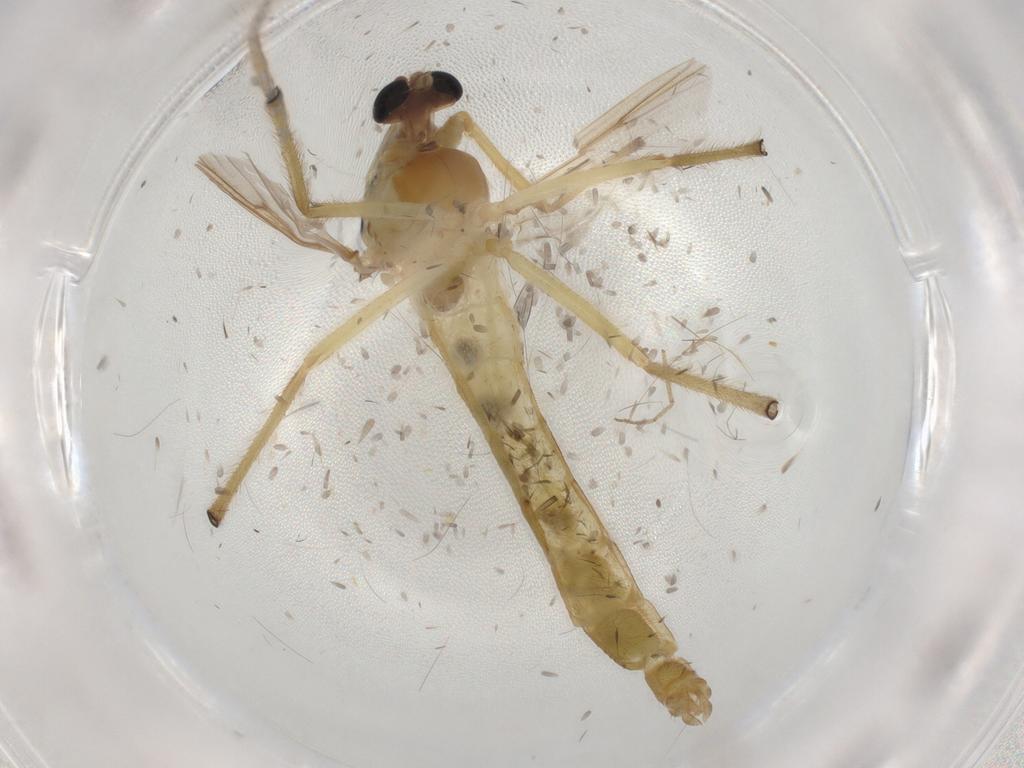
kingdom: Animalia
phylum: Arthropoda
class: Insecta
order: Diptera
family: Chironomidae
